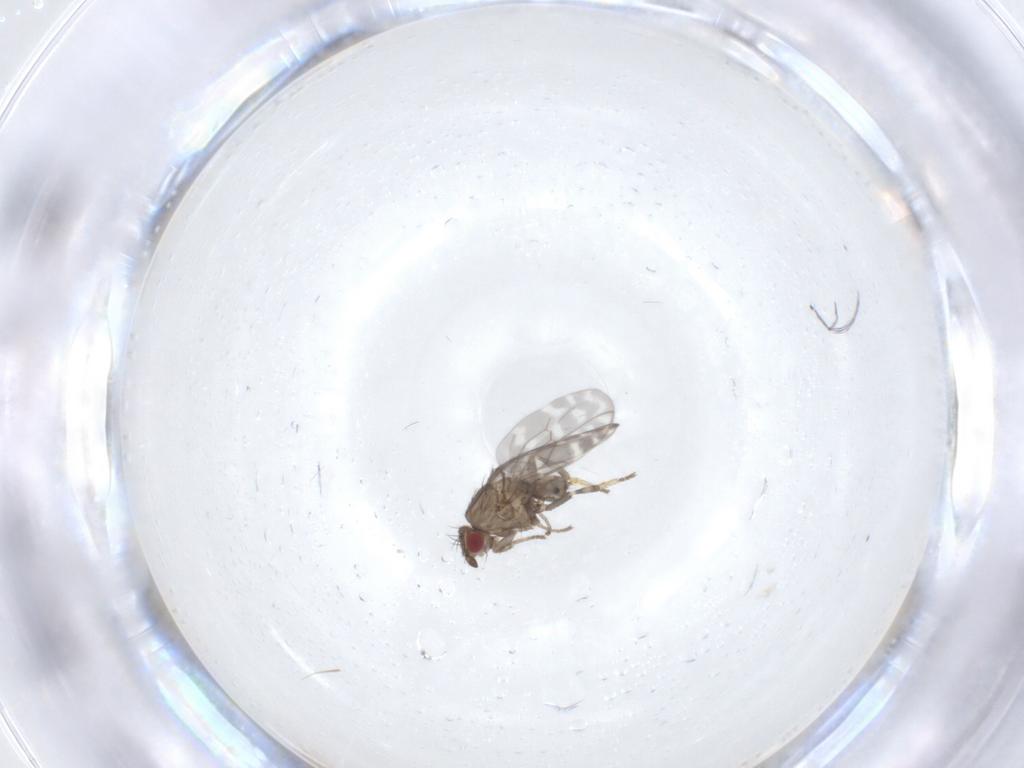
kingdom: Animalia
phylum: Arthropoda
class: Insecta
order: Diptera
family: Sphaeroceridae
